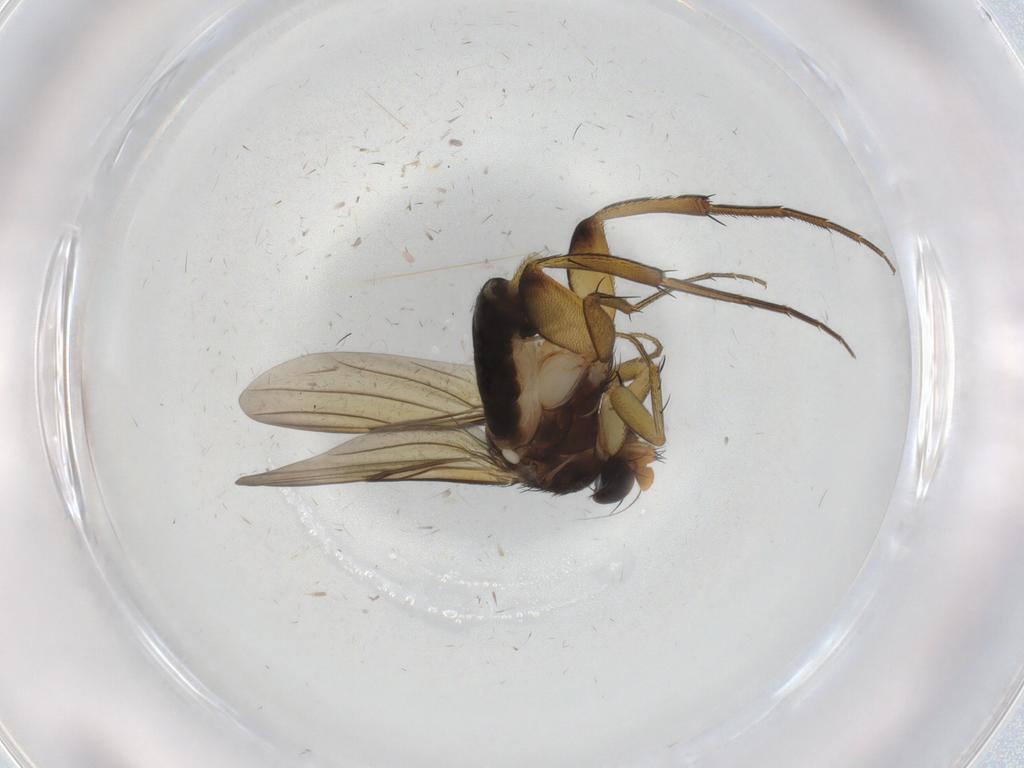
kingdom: Animalia
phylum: Arthropoda
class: Insecta
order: Diptera
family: Phoridae
